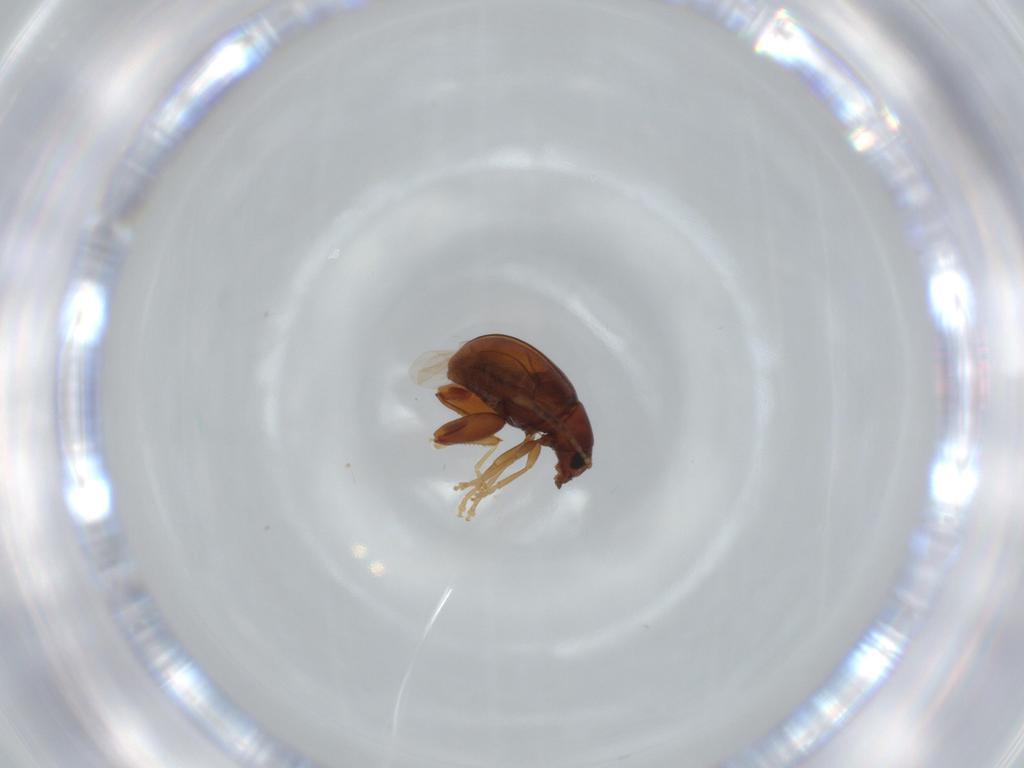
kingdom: Animalia
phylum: Arthropoda
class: Insecta
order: Coleoptera
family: Chrysomelidae
